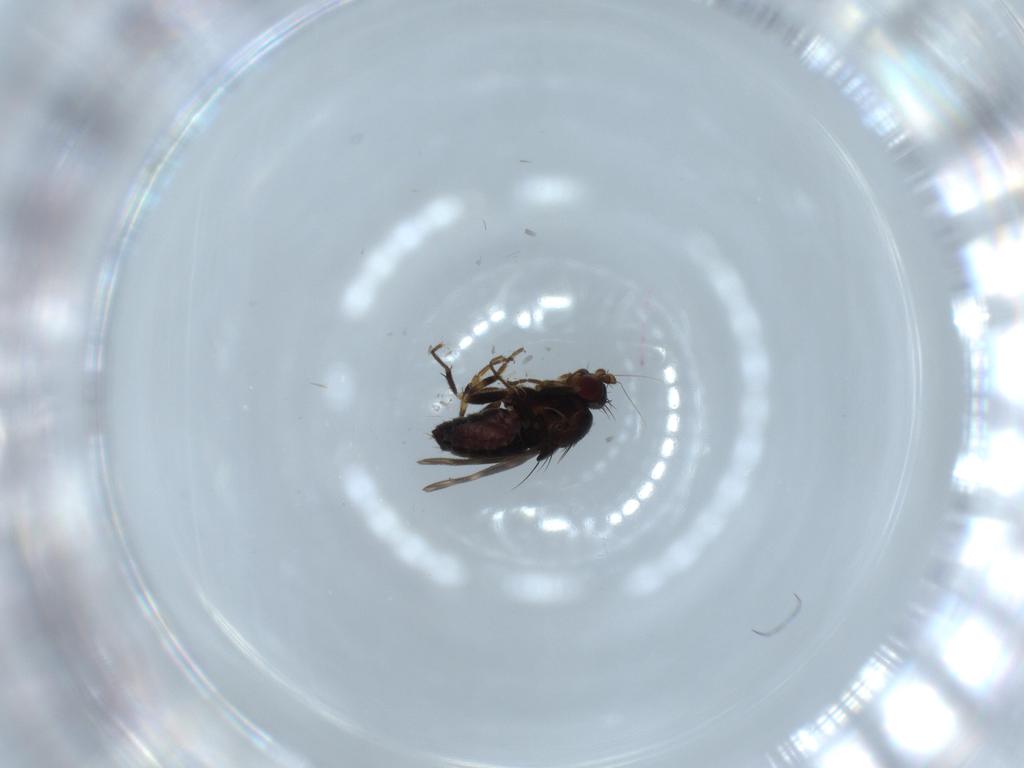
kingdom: Animalia
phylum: Arthropoda
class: Insecta
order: Diptera
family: Sphaeroceridae
